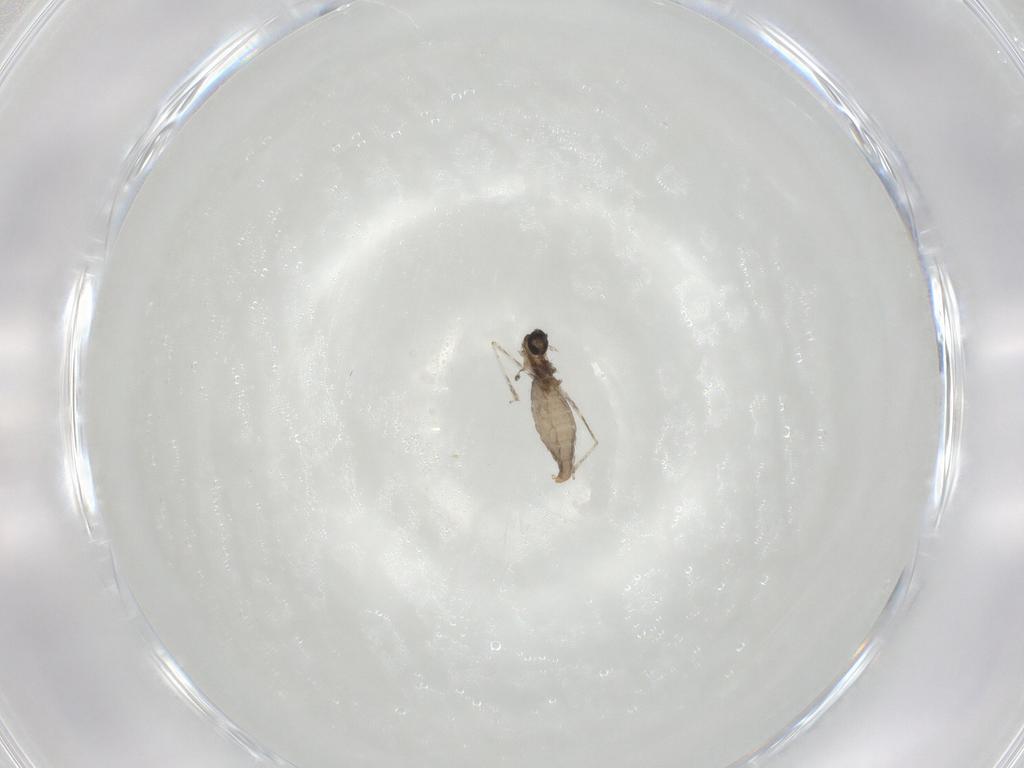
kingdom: Animalia
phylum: Arthropoda
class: Insecta
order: Diptera
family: Cecidomyiidae
